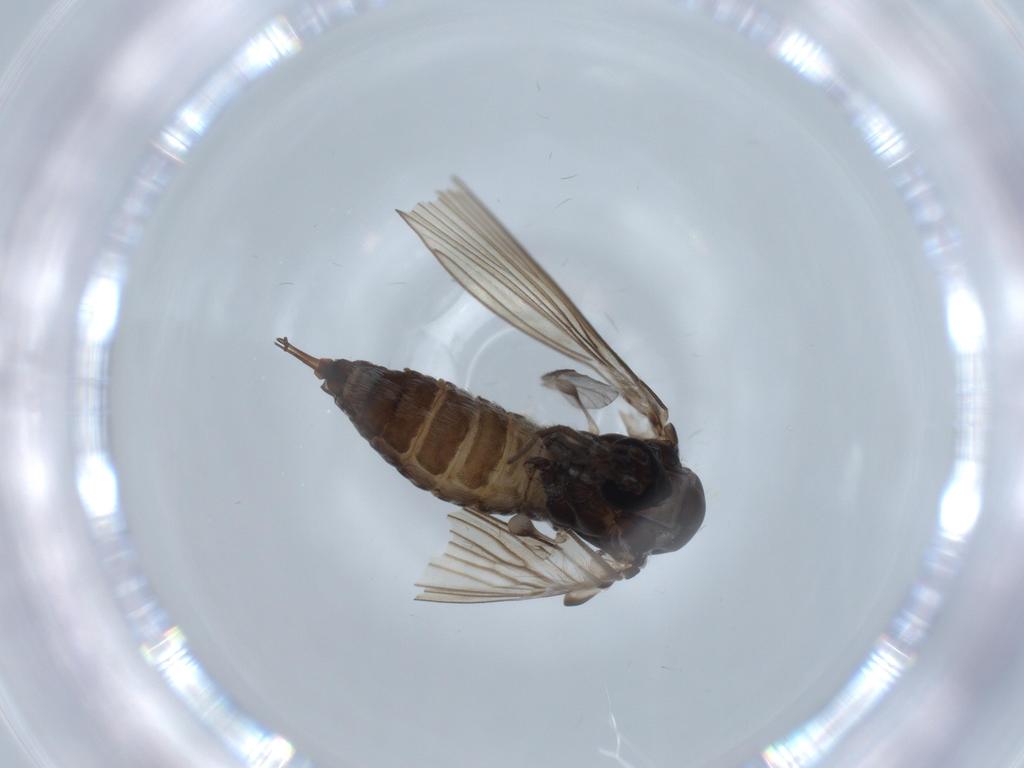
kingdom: Animalia
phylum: Arthropoda
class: Insecta
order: Diptera
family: Psychodidae
